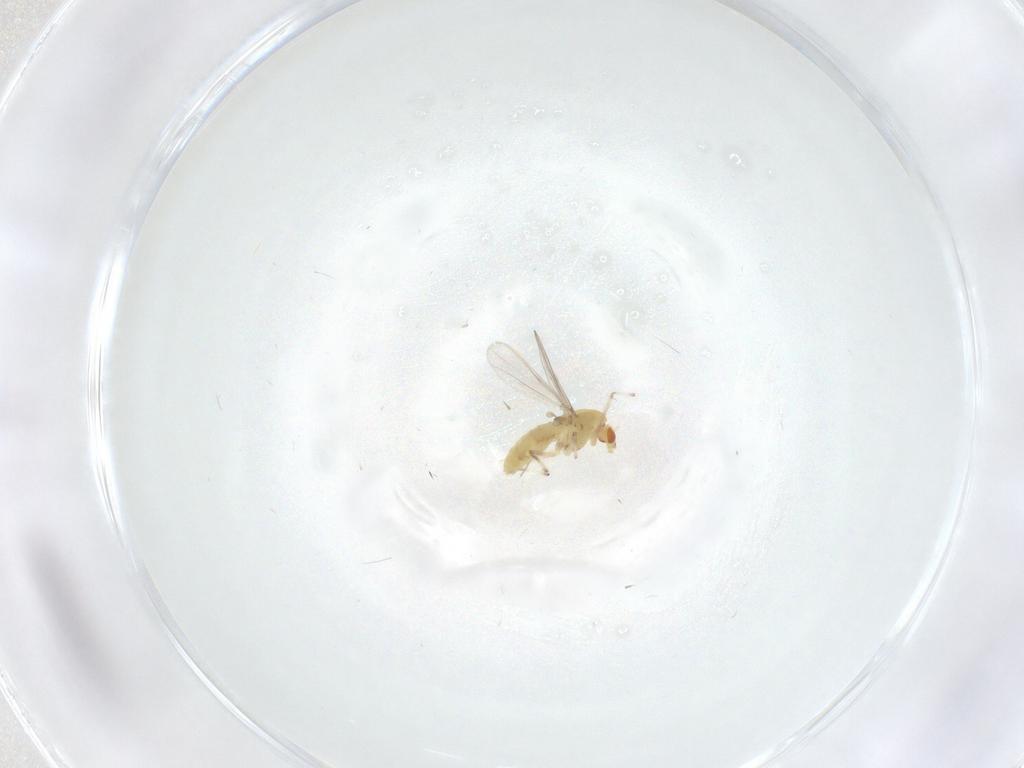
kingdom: Animalia
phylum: Arthropoda
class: Insecta
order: Diptera
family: Chironomidae
